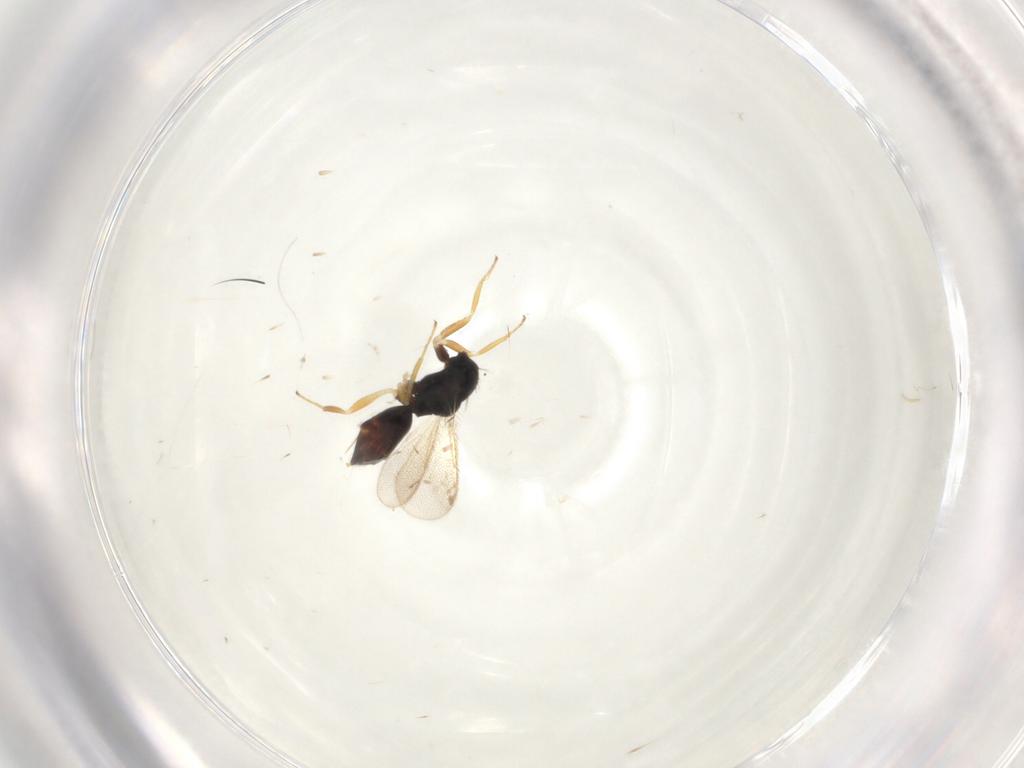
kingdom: Animalia
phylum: Arthropoda
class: Insecta
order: Hymenoptera
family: Eulophidae
